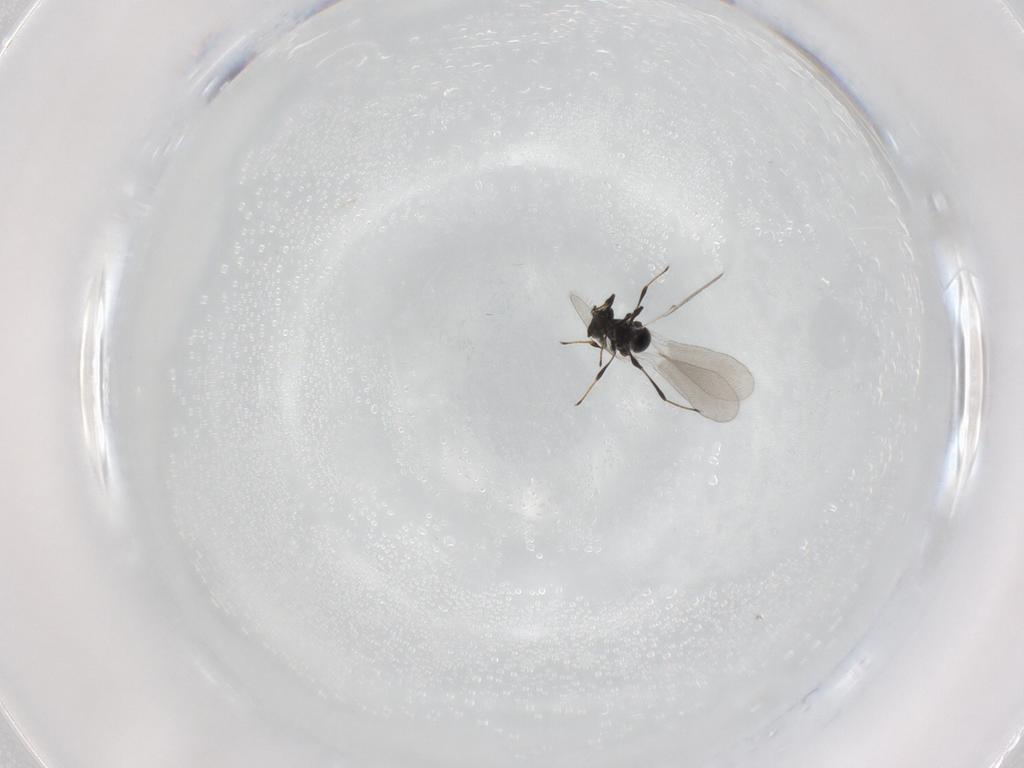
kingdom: Animalia
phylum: Arthropoda
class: Insecta
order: Hymenoptera
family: Platygastridae
